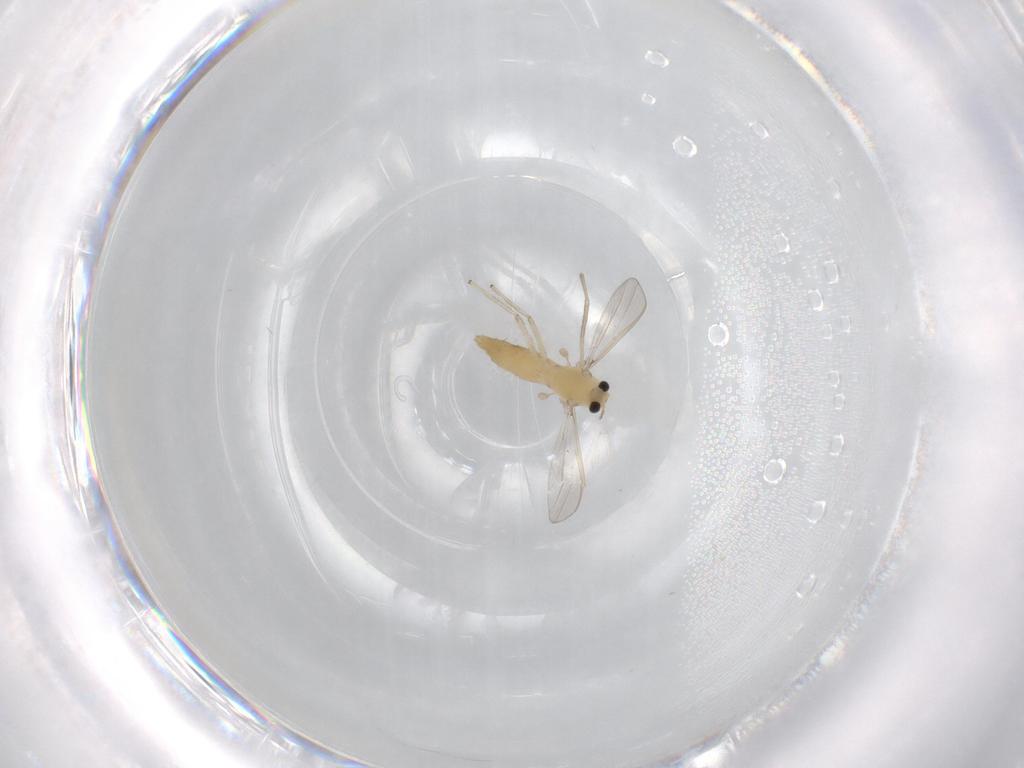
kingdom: Animalia
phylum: Arthropoda
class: Insecta
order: Diptera
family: Chironomidae
